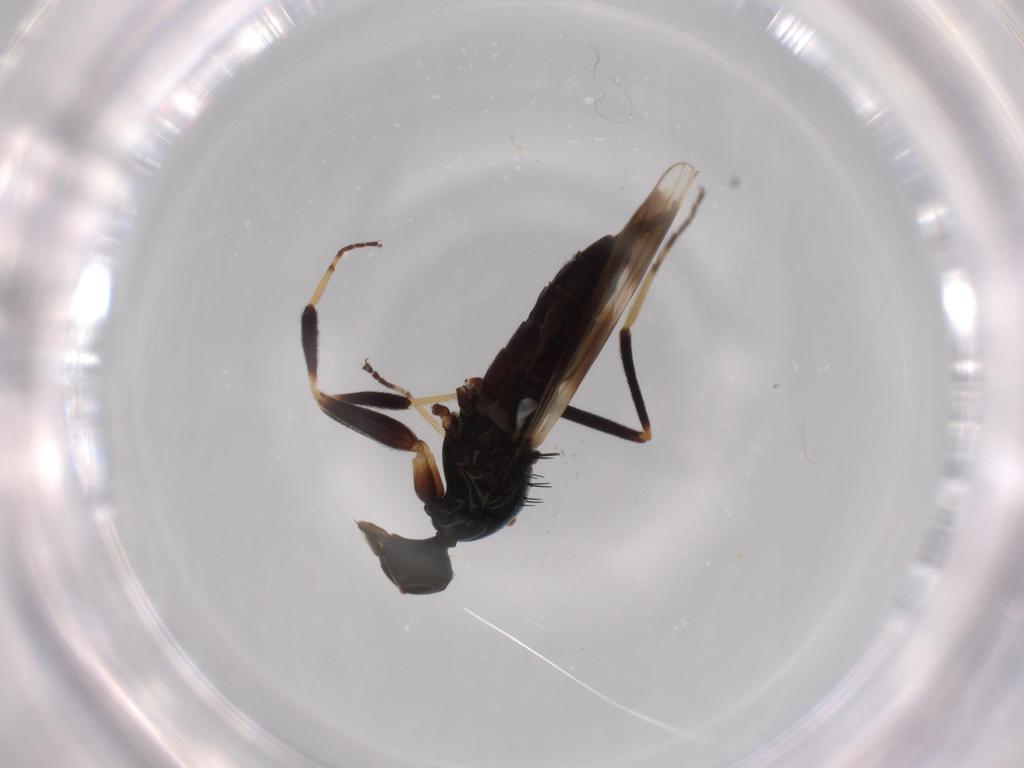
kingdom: Animalia
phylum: Arthropoda
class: Insecta
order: Diptera
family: Hybotidae
